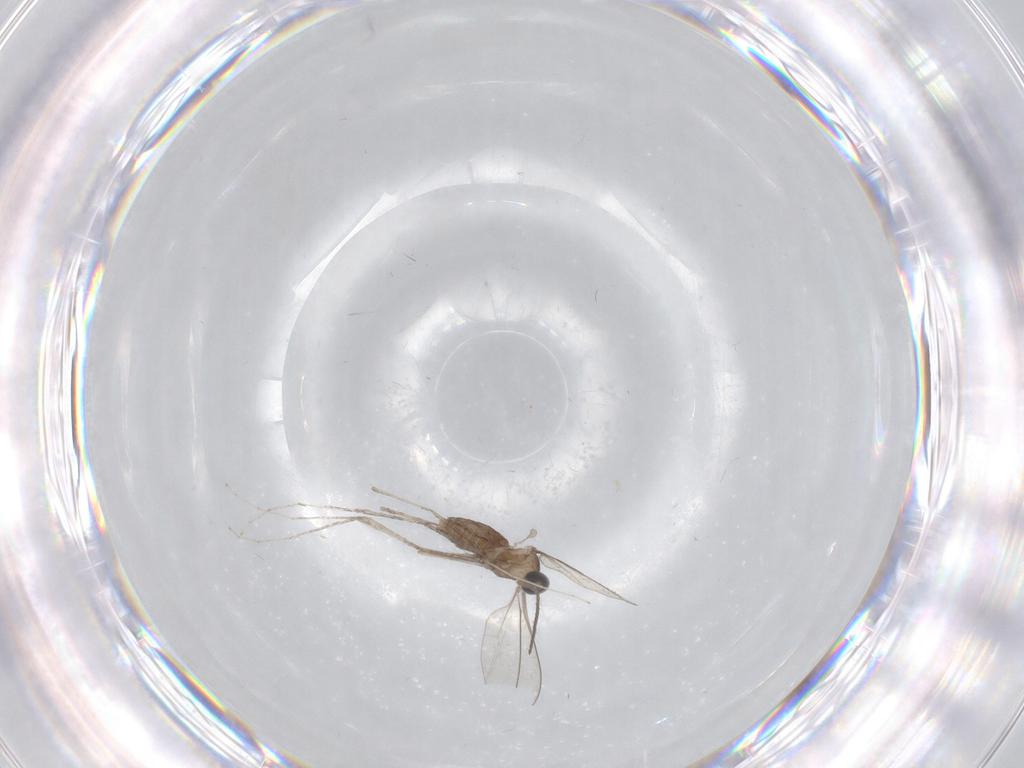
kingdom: Animalia
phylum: Arthropoda
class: Insecta
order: Diptera
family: Cecidomyiidae
